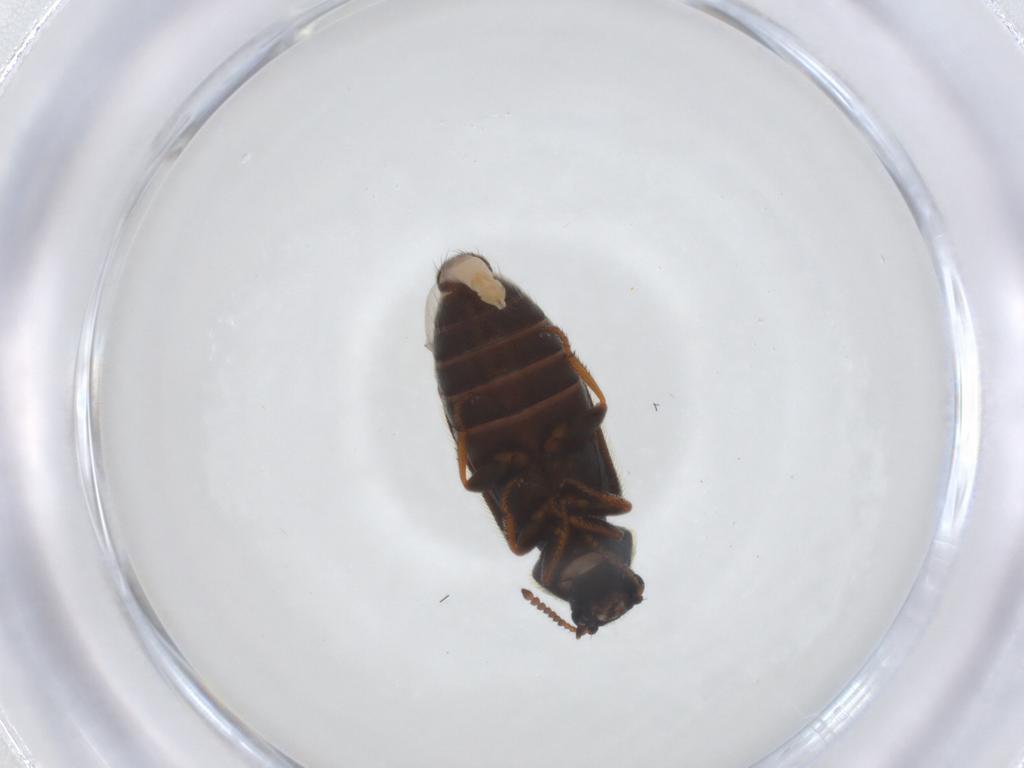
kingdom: Animalia
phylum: Arthropoda
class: Insecta
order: Coleoptera
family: Melyridae
